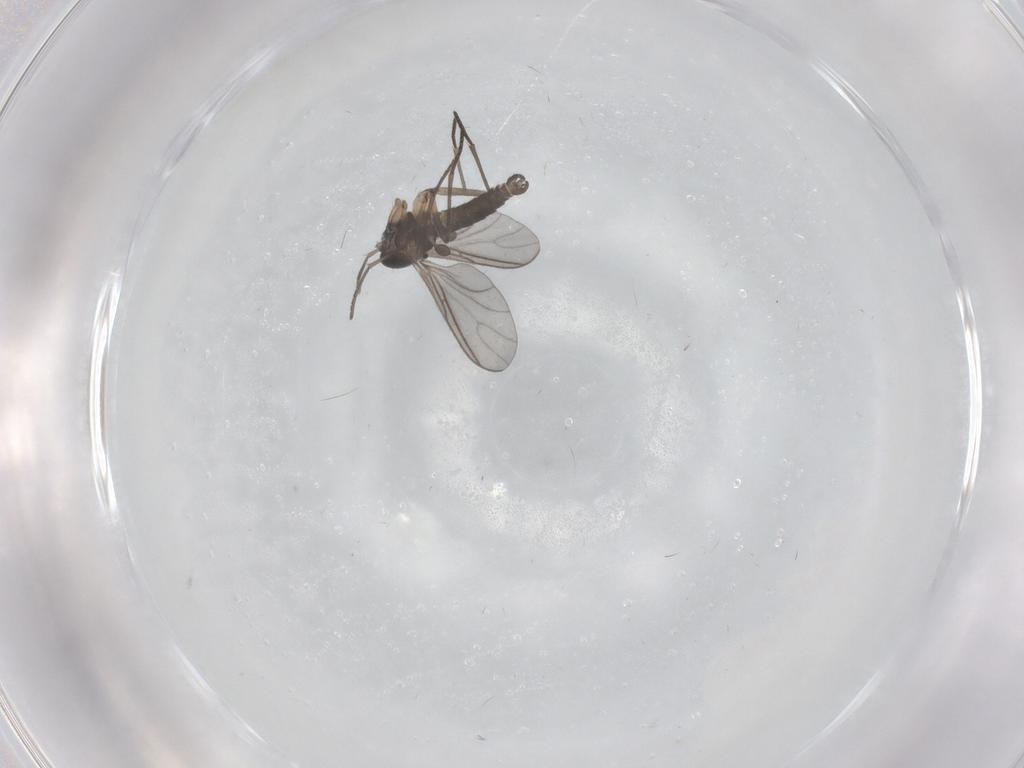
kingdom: Animalia
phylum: Arthropoda
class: Insecta
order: Diptera
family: Sciaridae
